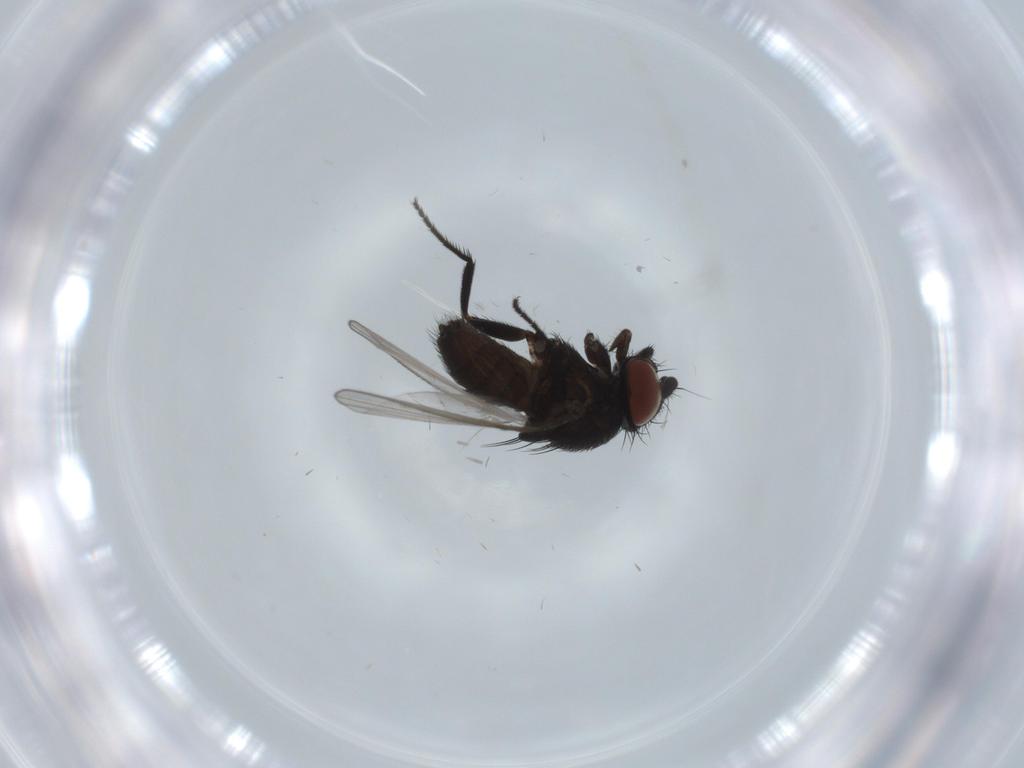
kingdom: Animalia
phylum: Arthropoda
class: Insecta
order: Diptera
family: Milichiidae
